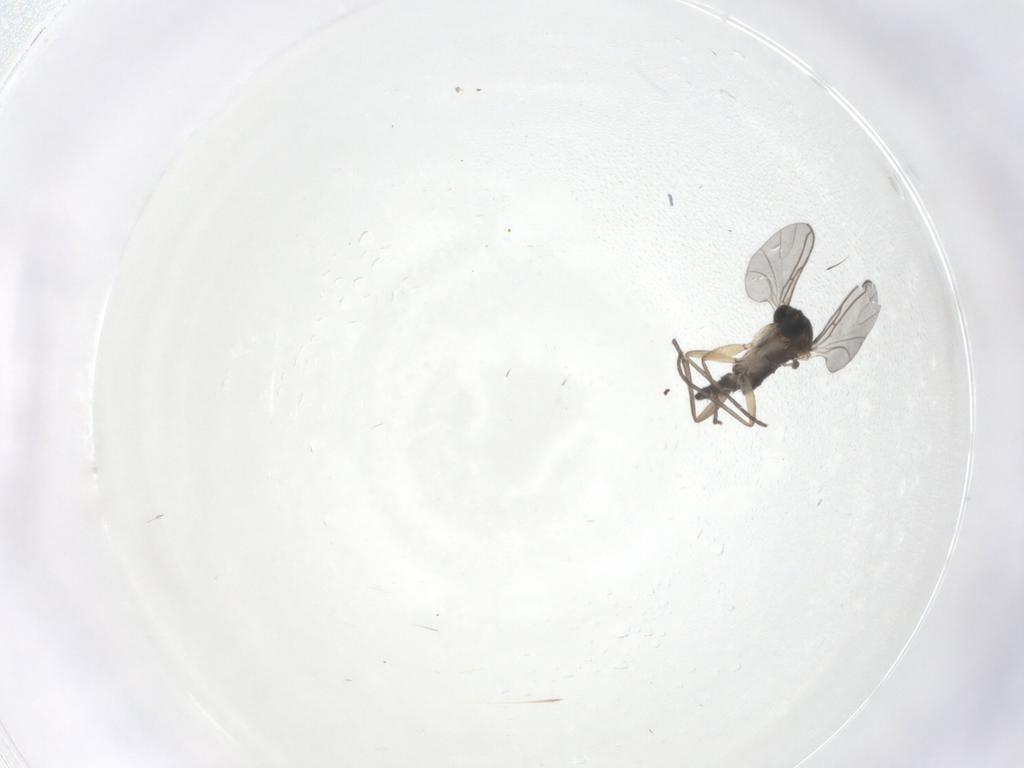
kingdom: Animalia
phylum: Arthropoda
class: Insecta
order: Diptera
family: Sciaridae
